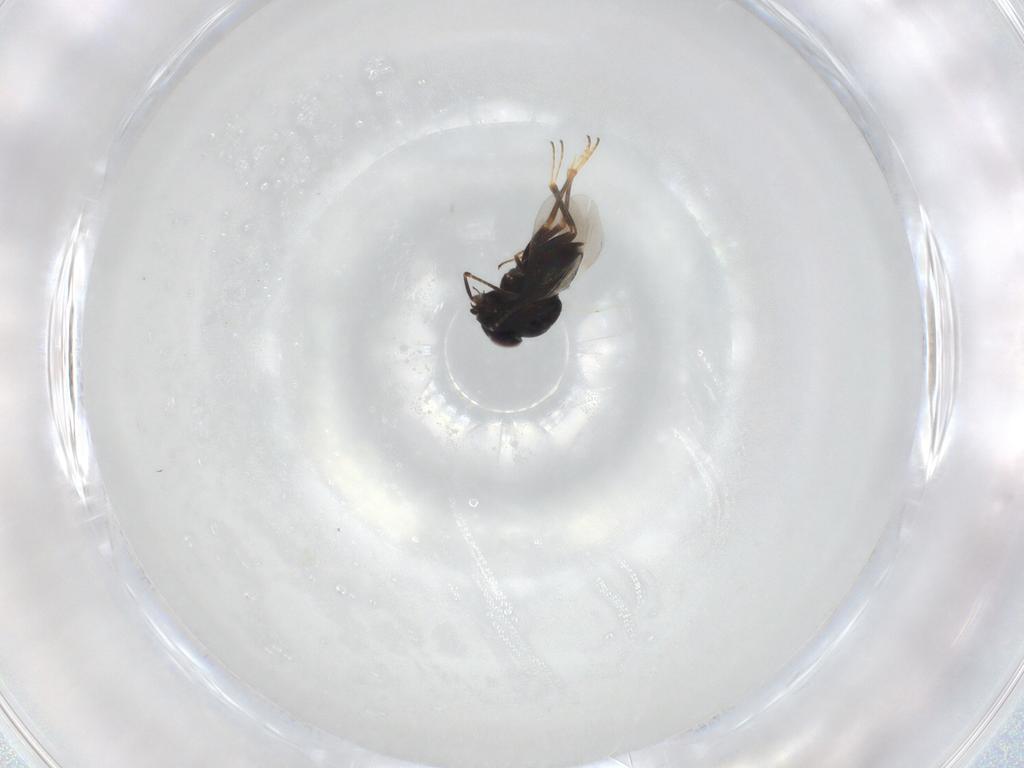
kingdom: Animalia
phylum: Arthropoda
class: Insecta
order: Hymenoptera
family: Encyrtidae
